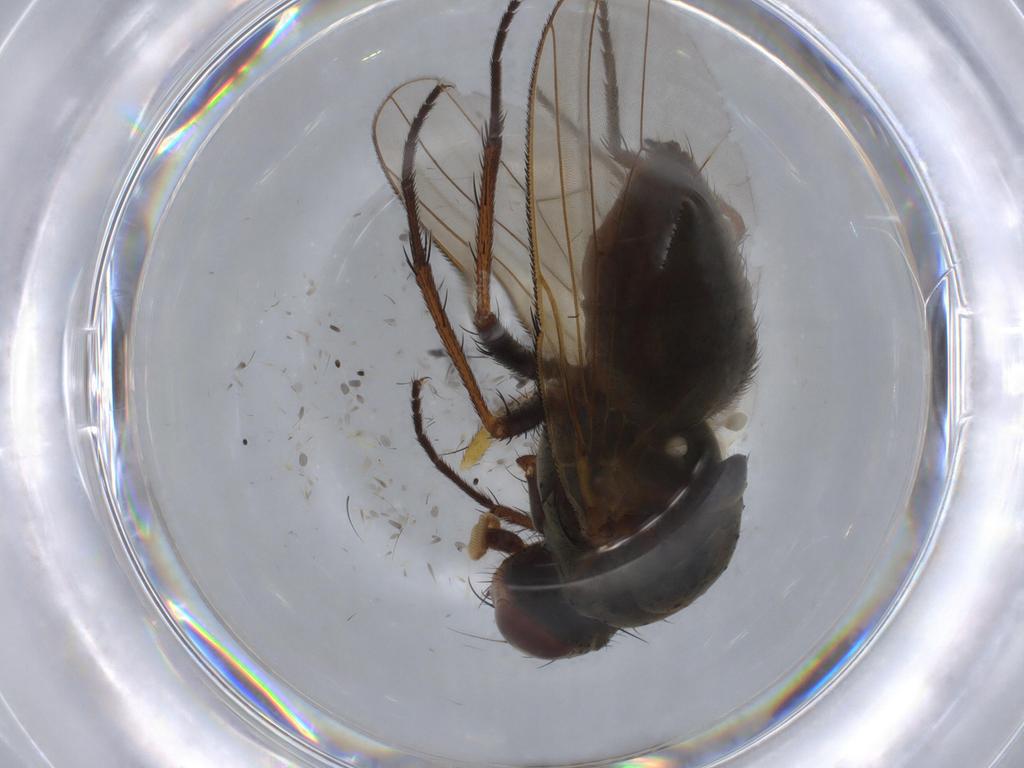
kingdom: Animalia
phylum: Arthropoda
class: Insecta
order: Diptera
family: Anthomyiidae
